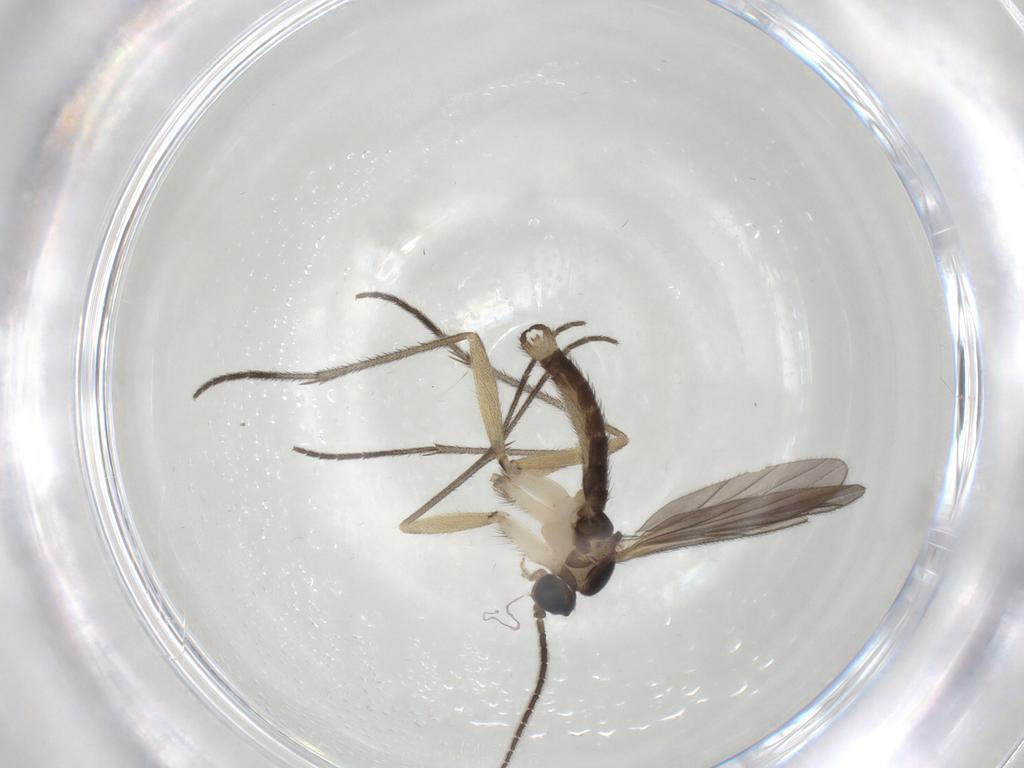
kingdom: Animalia
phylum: Arthropoda
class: Insecta
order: Diptera
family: Sciaridae
